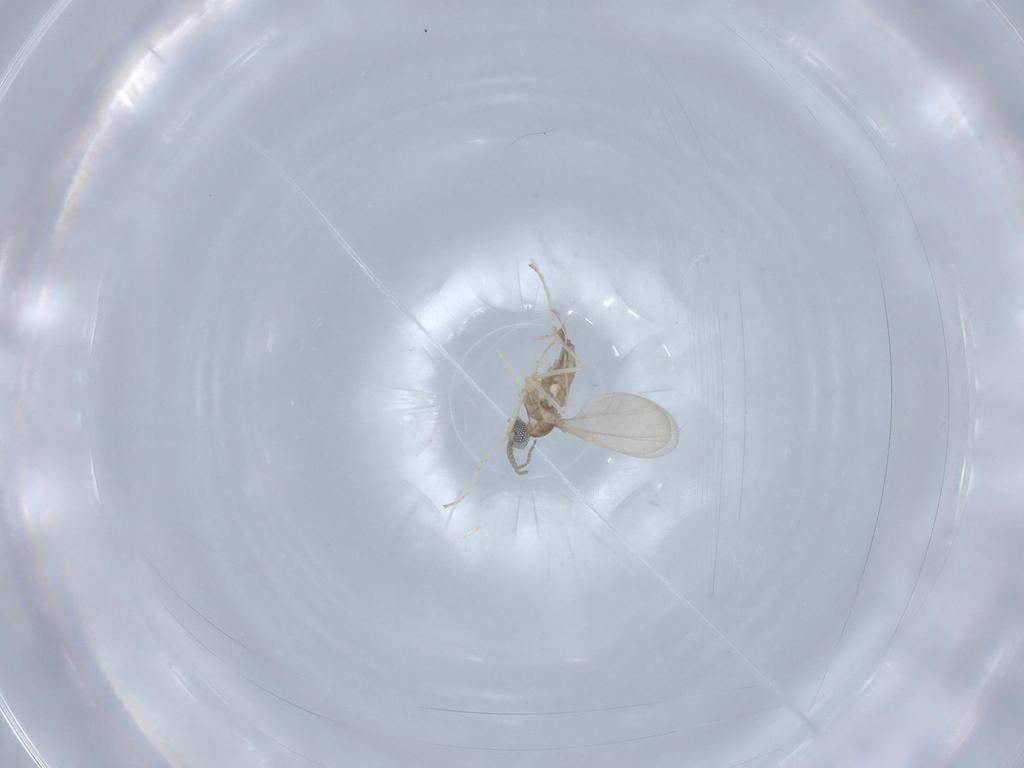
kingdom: Animalia
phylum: Arthropoda
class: Insecta
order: Diptera
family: Cecidomyiidae
